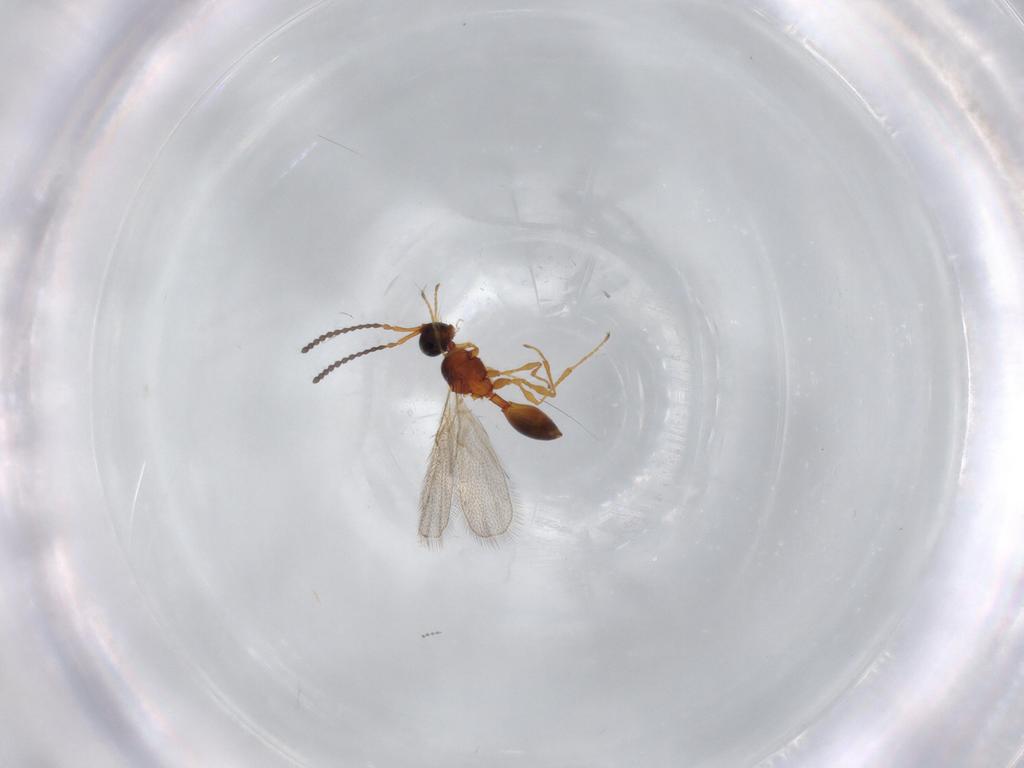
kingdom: Animalia
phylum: Arthropoda
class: Insecta
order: Hymenoptera
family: Diapriidae
